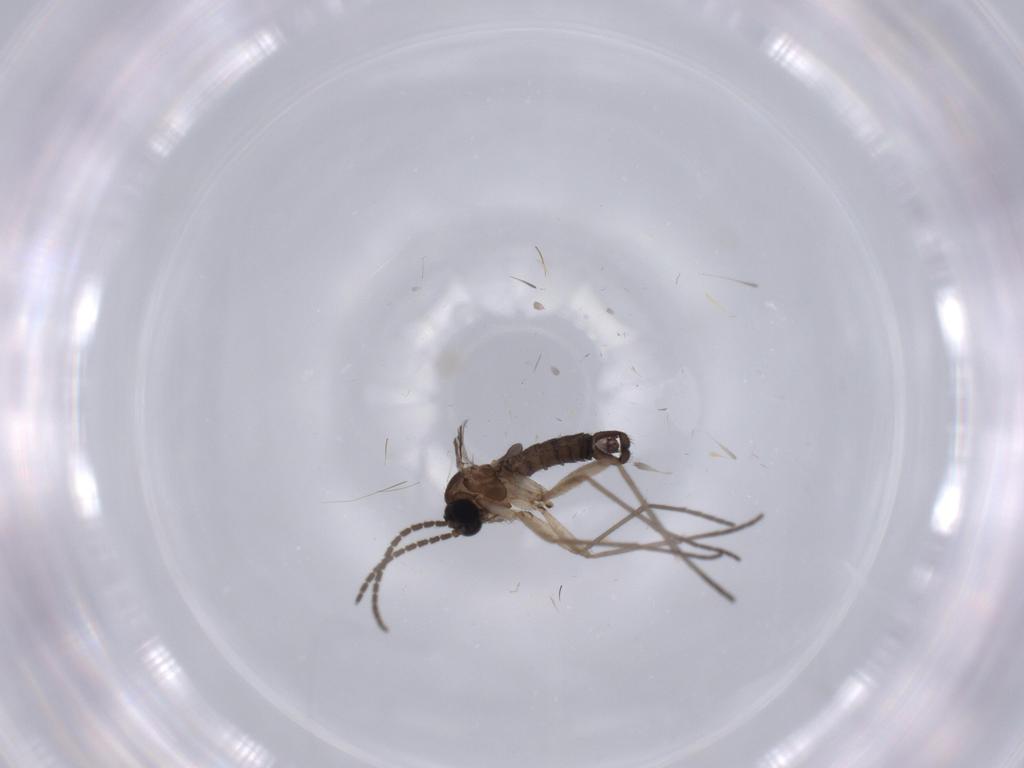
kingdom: Animalia
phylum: Arthropoda
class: Insecta
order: Diptera
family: Sciaridae
